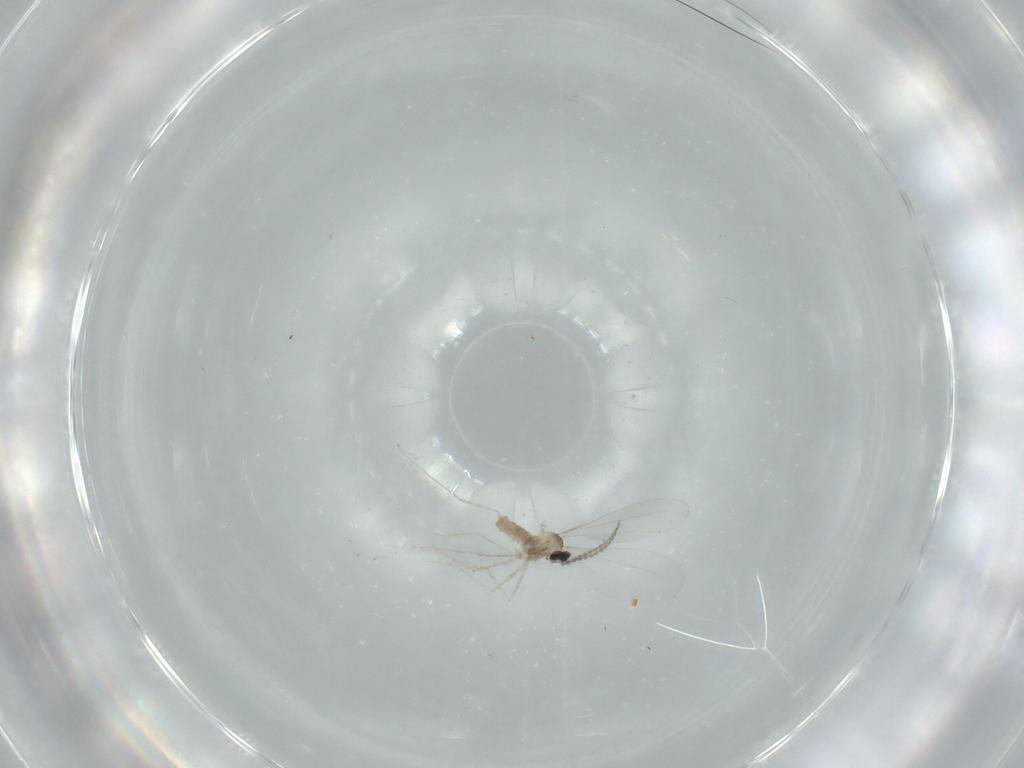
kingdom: Animalia
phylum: Arthropoda
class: Insecta
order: Diptera
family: Cecidomyiidae
